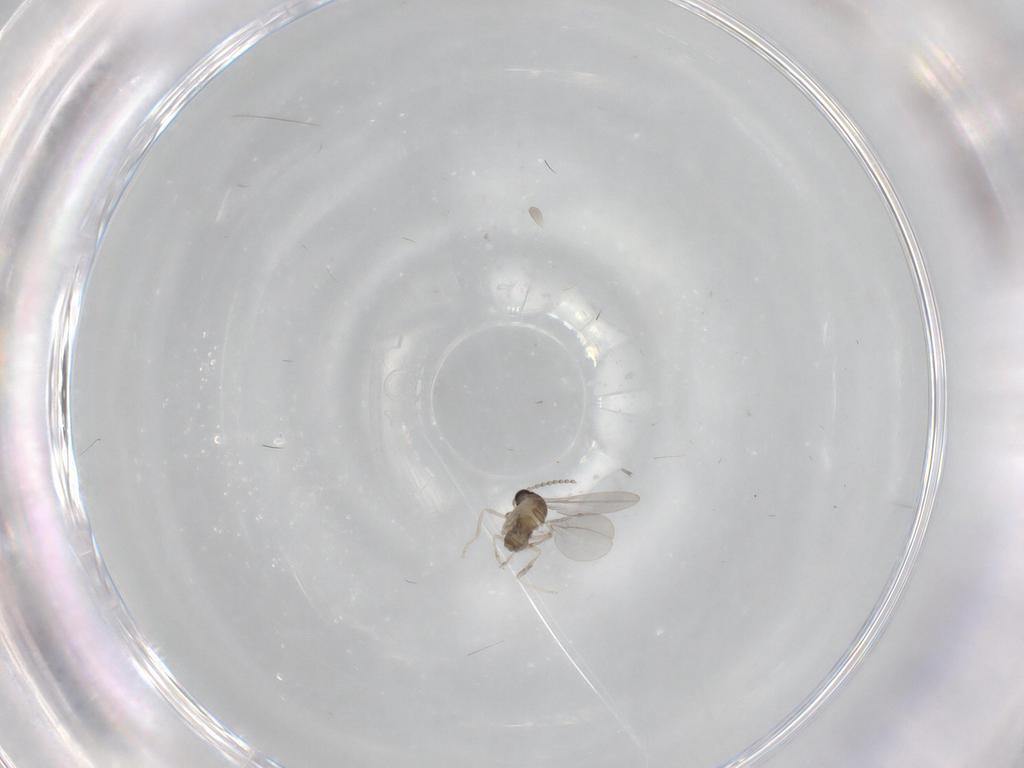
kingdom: Animalia
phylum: Arthropoda
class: Insecta
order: Diptera
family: Cecidomyiidae
